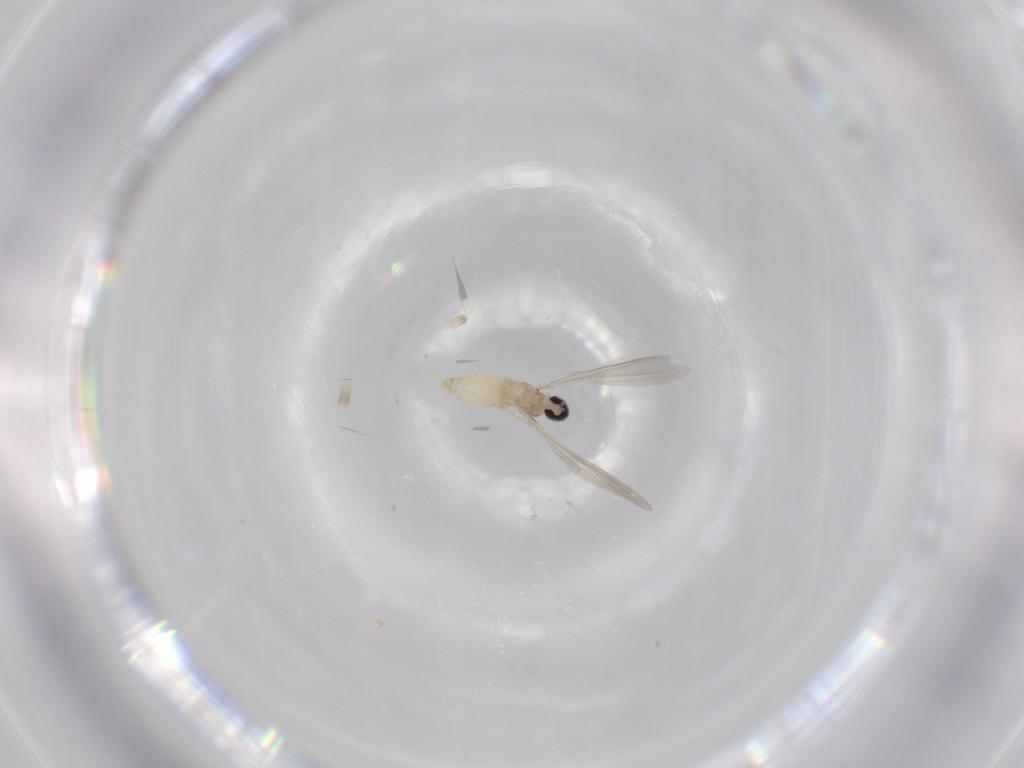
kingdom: Animalia
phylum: Arthropoda
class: Insecta
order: Diptera
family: Cecidomyiidae
